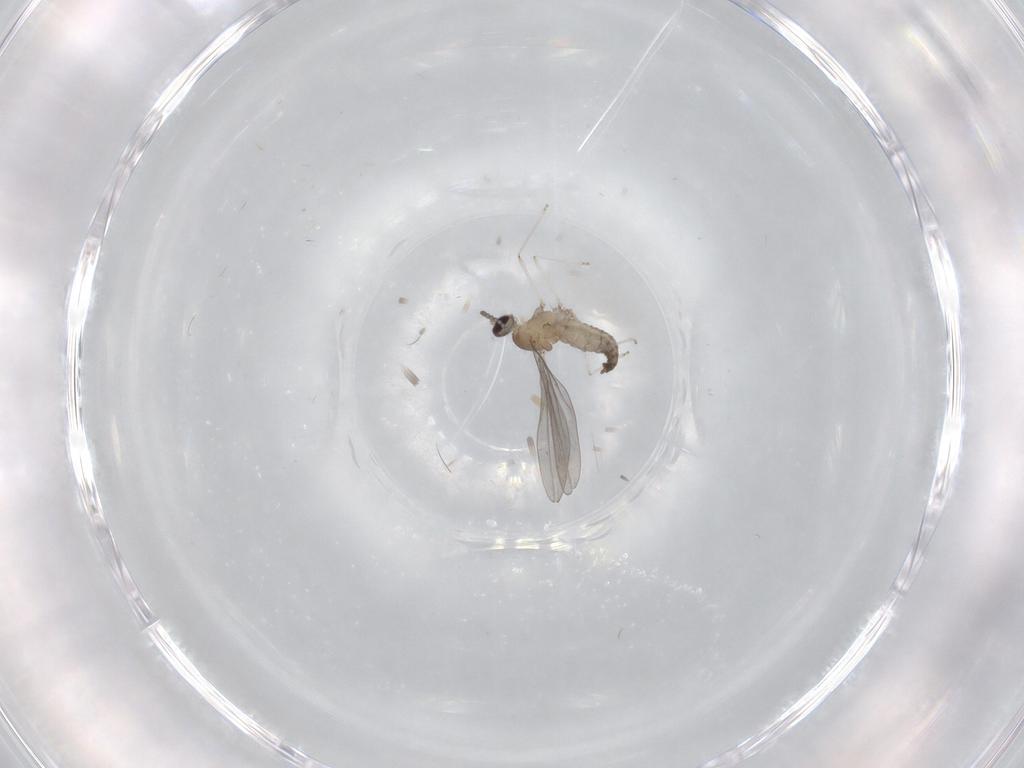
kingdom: Animalia
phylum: Arthropoda
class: Insecta
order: Diptera
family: Cecidomyiidae
